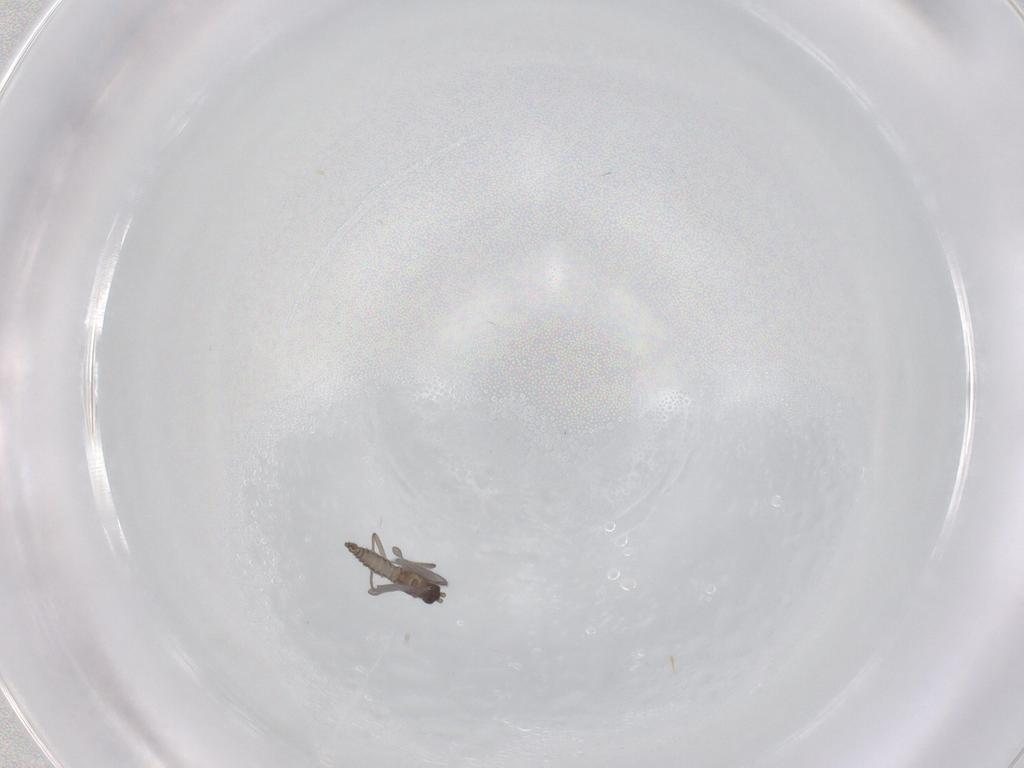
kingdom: Animalia
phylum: Arthropoda
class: Insecta
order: Diptera
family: Sciaridae
